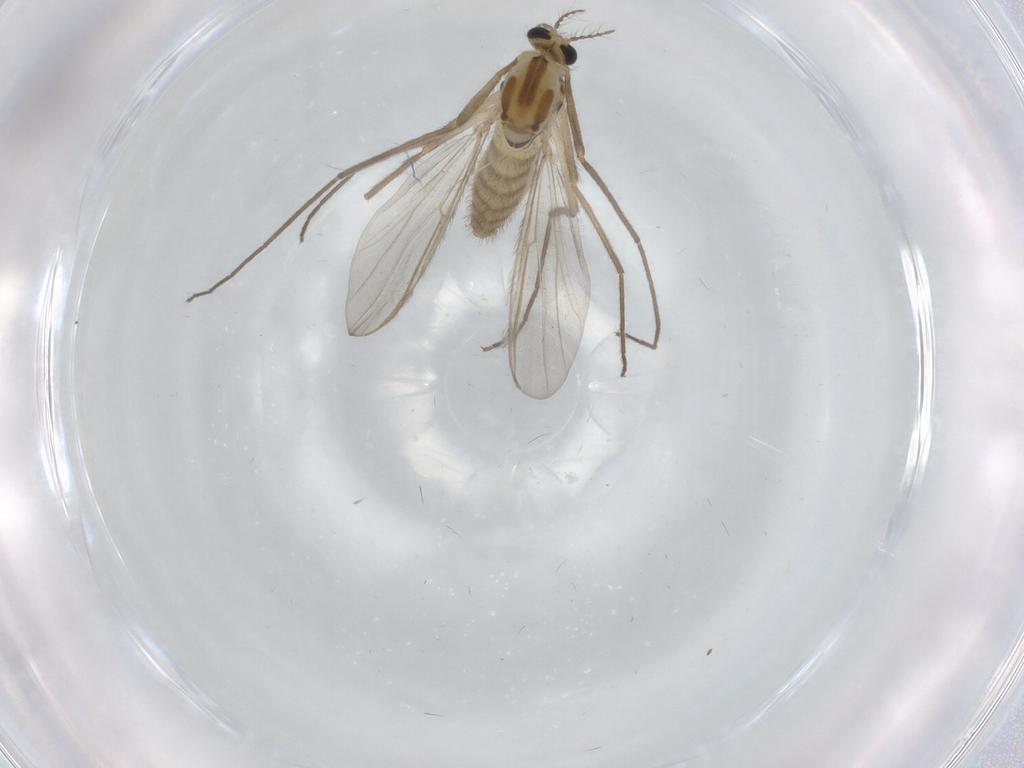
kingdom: Animalia
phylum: Arthropoda
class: Insecta
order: Diptera
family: Chironomidae
